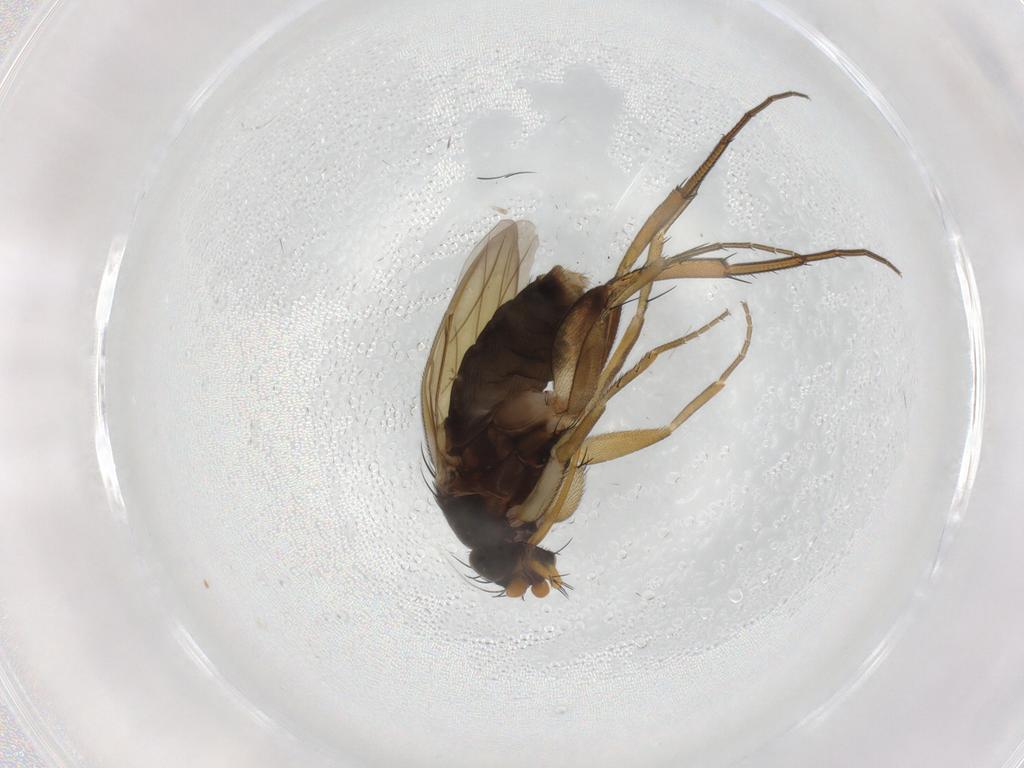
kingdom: Animalia
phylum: Arthropoda
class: Insecta
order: Diptera
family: Phoridae
